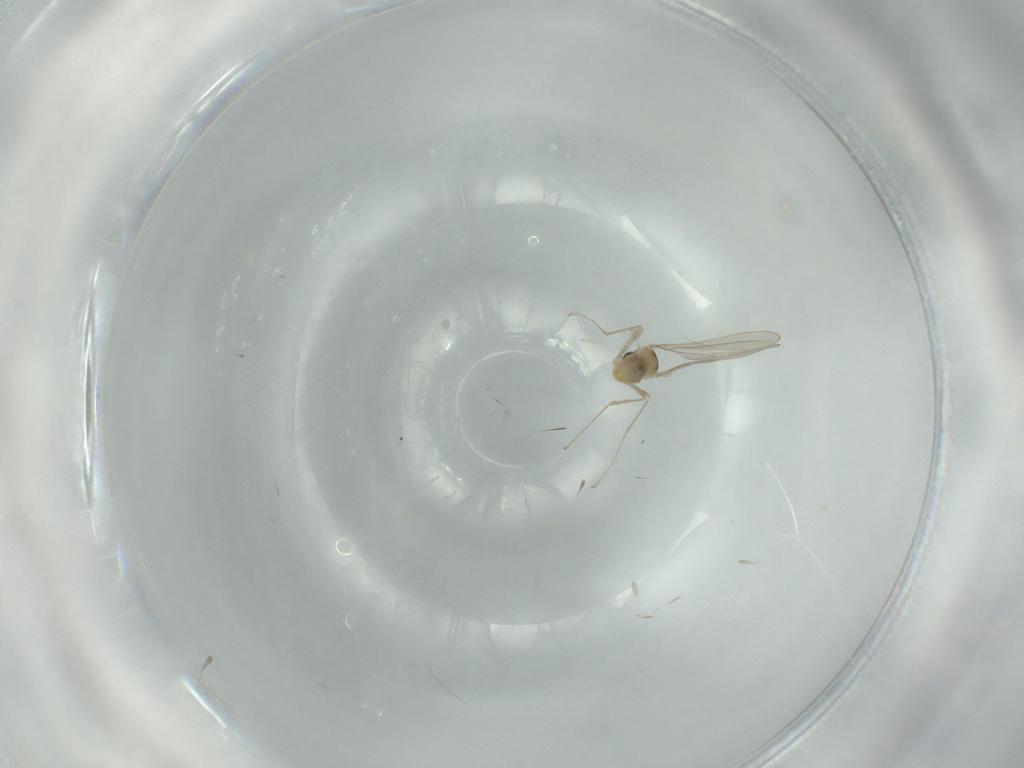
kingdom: Animalia
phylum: Arthropoda
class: Insecta
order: Diptera
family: Cecidomyiidae
